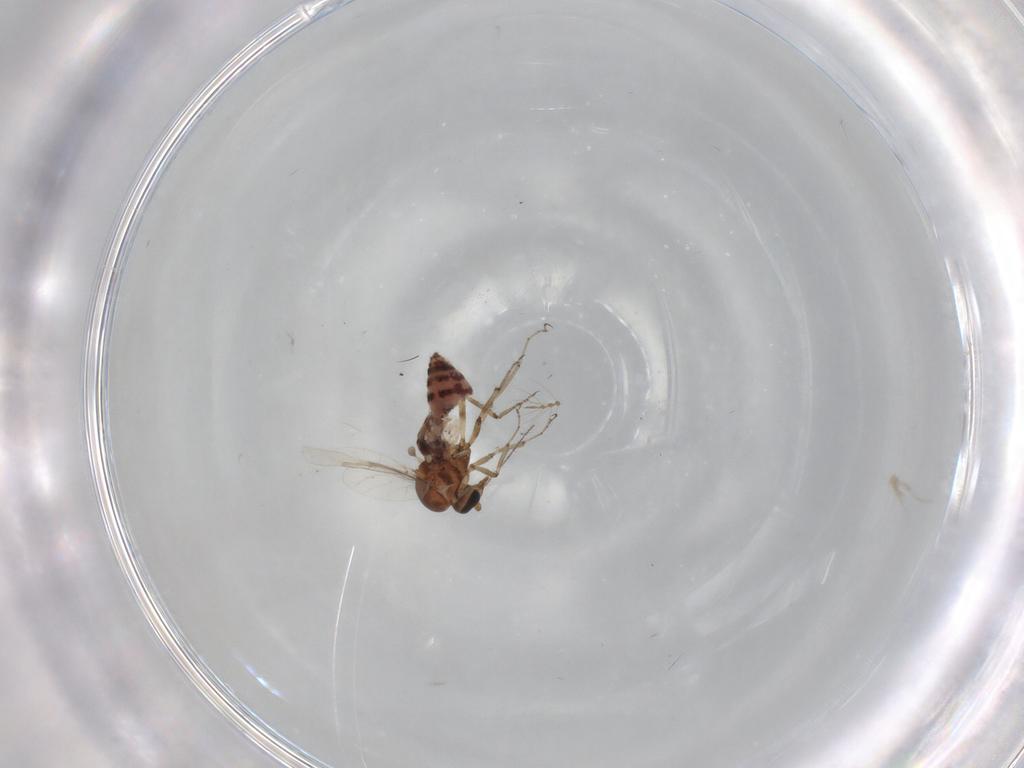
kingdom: Animalia
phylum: Arthropoda
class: Insecta
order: Diptera
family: Ceratopogonidae
